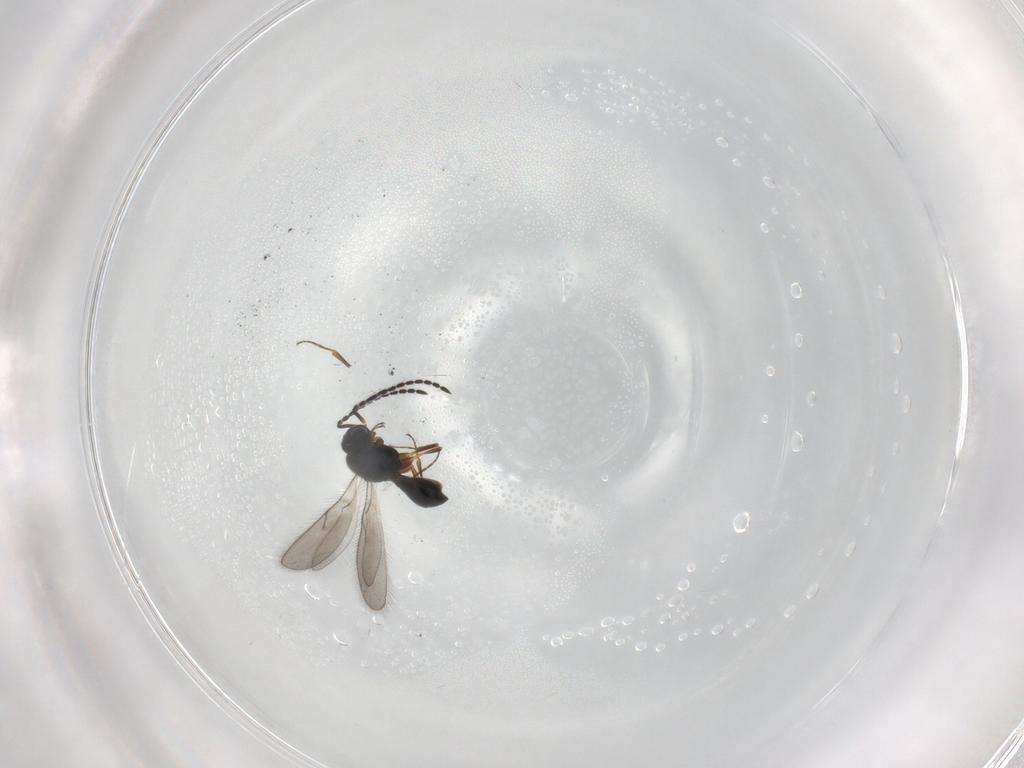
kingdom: Animalia
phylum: Arthropoda
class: Insecta
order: Hymenoptera
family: Scelionidae
